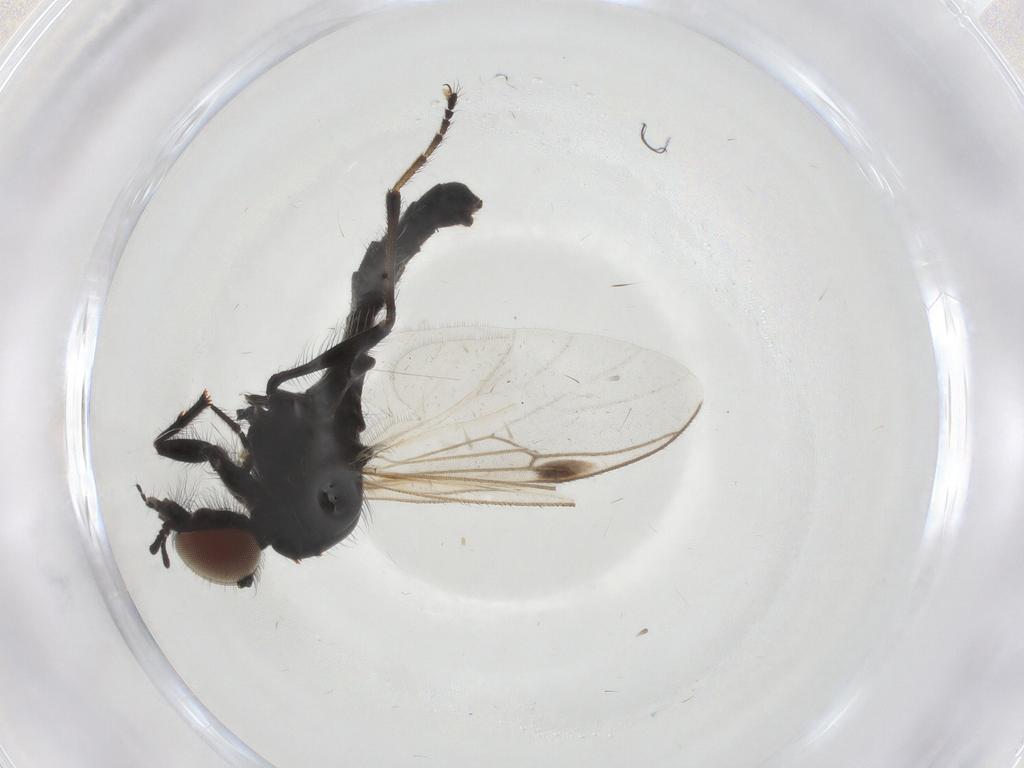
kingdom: Animalia
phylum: Arthropoda
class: Insecta
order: Diptera
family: Bibionidae
